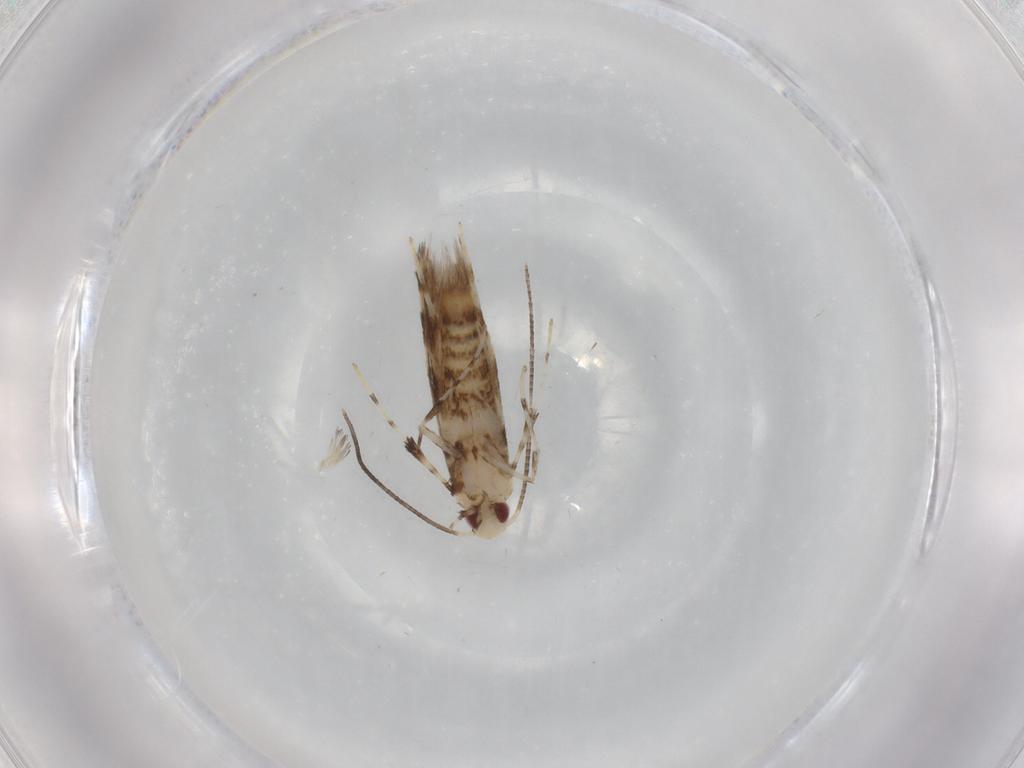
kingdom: Animalia
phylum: Arthropoda
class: Insecta
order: Lepidoptera
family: Gracillariidae
